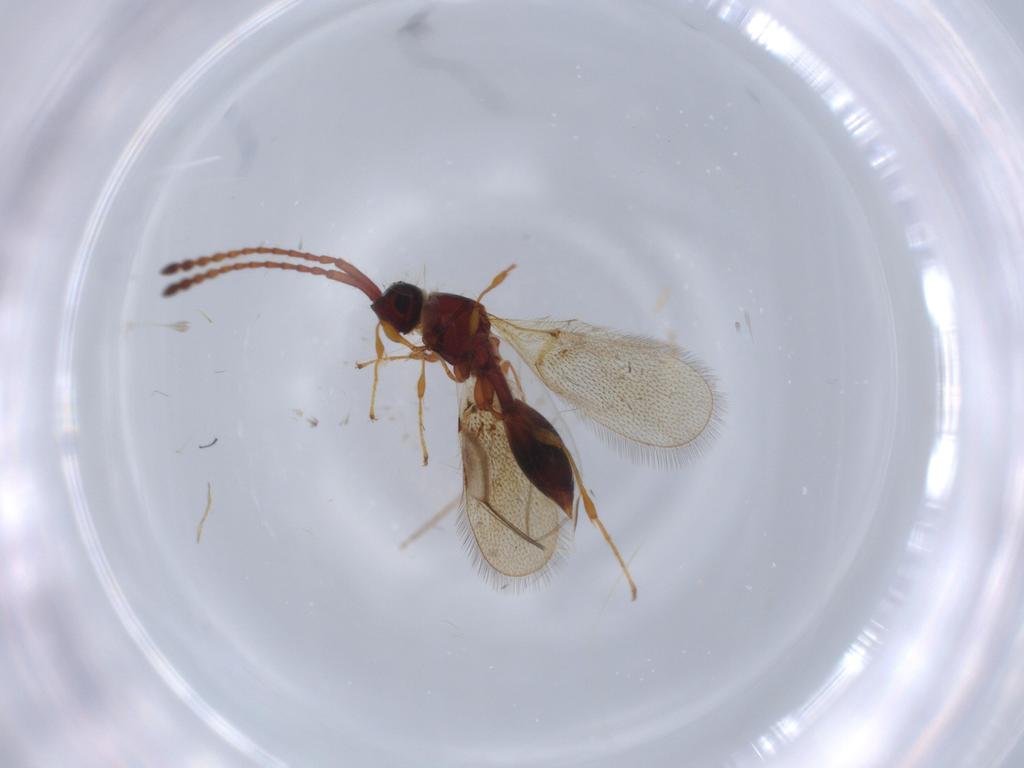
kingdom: Animalia
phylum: Arthropoda
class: Insecta
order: Hymenoptera
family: Diapriidae
